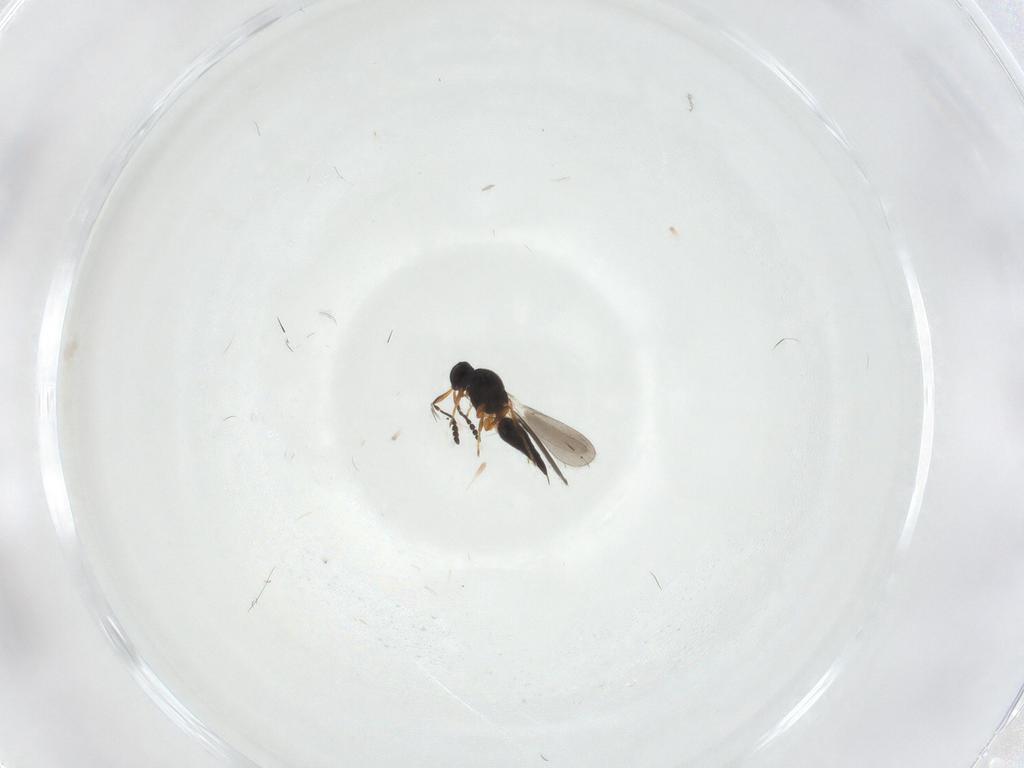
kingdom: Animalia
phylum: Arthropoda
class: Insecta
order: Hymenoptera
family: Platygastridae
